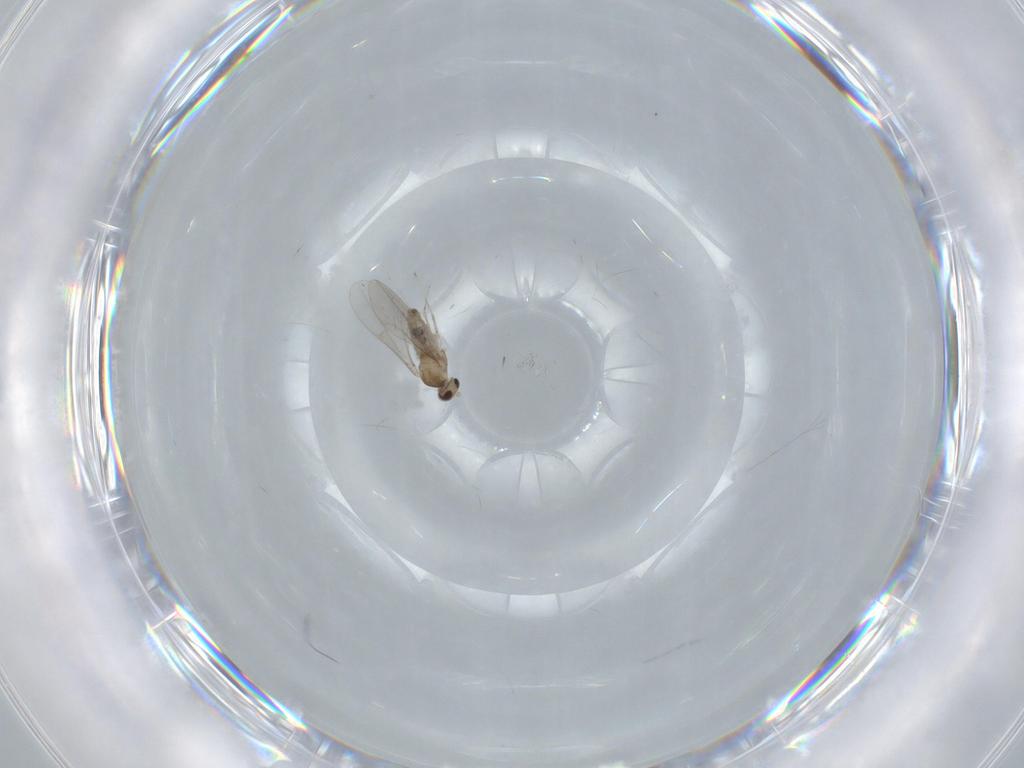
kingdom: Animalia
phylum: Arthropoda
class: Insecta
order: Diptera
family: Cecidomyiidae
